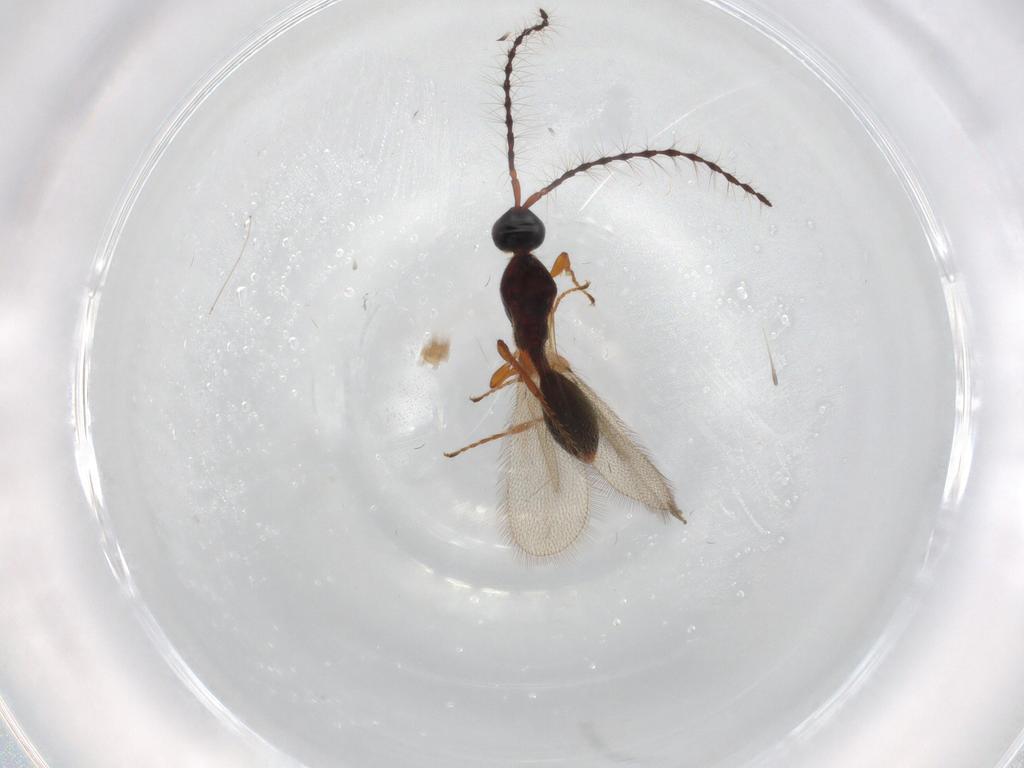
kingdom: Animalia
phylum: Arthropoda
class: Insecta
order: Hymenoptera
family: Diapriidae
